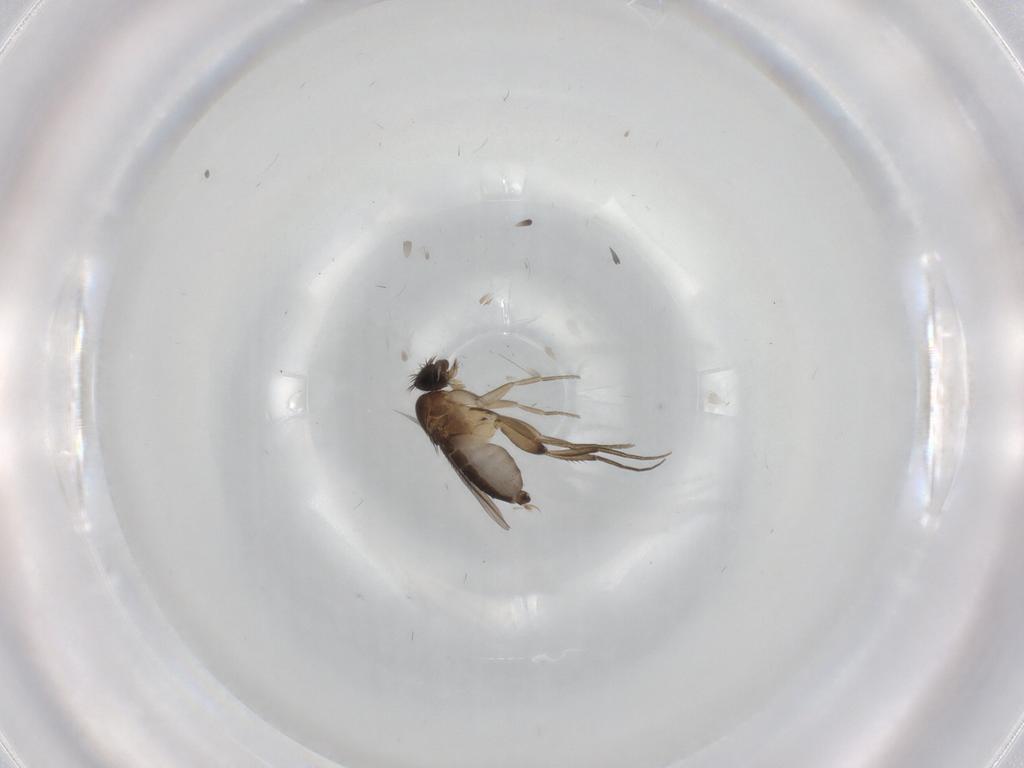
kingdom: Animalia
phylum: Arthropoda
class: Insecta
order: Diptera
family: Phoridae
